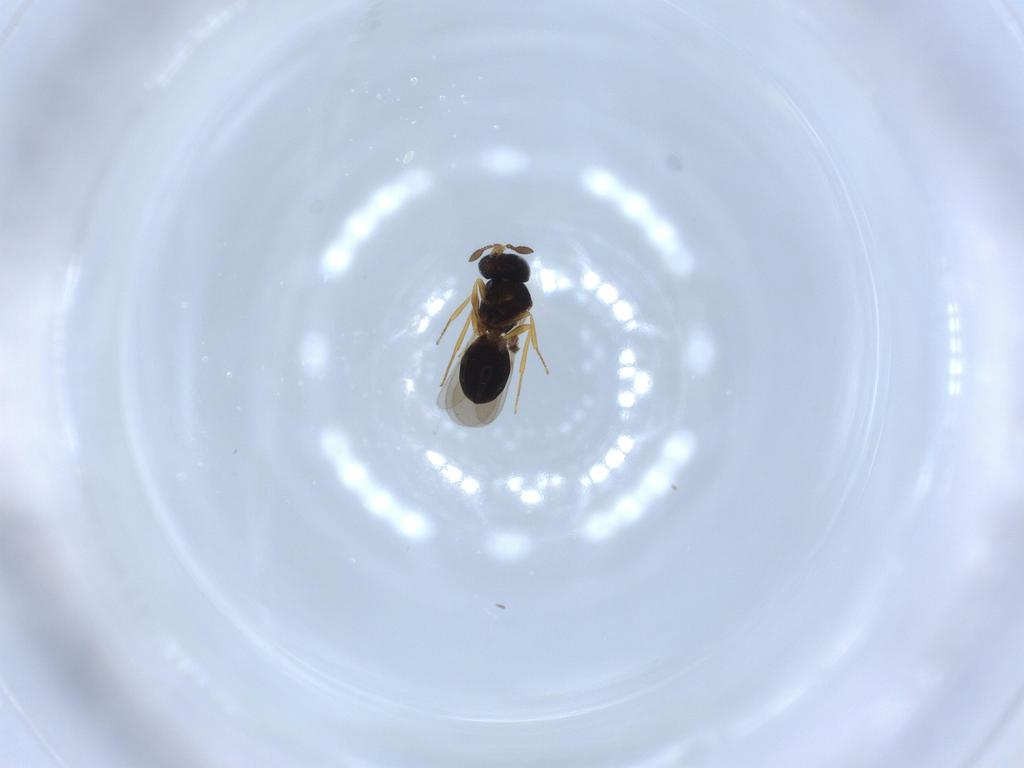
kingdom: Animalia
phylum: Arthropoda
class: Insecta
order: Hymenoptera
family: Scelionidae
